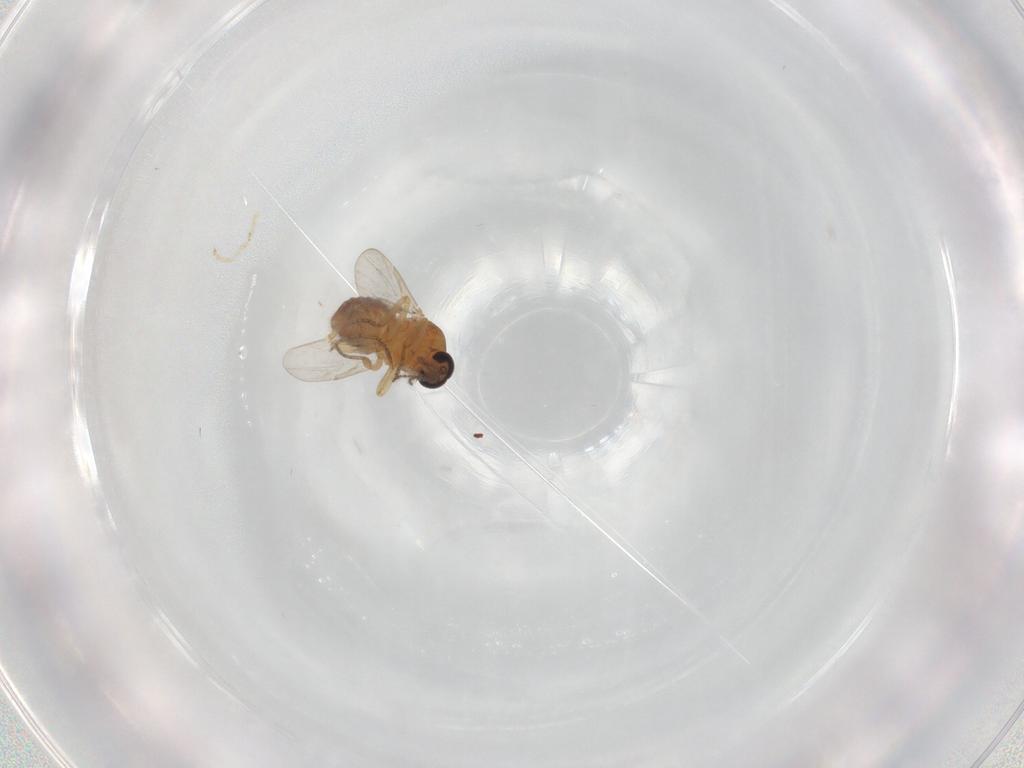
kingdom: Animalia
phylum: Arthropoda
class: Insecta
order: Diptera
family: Ceratopogonidae
